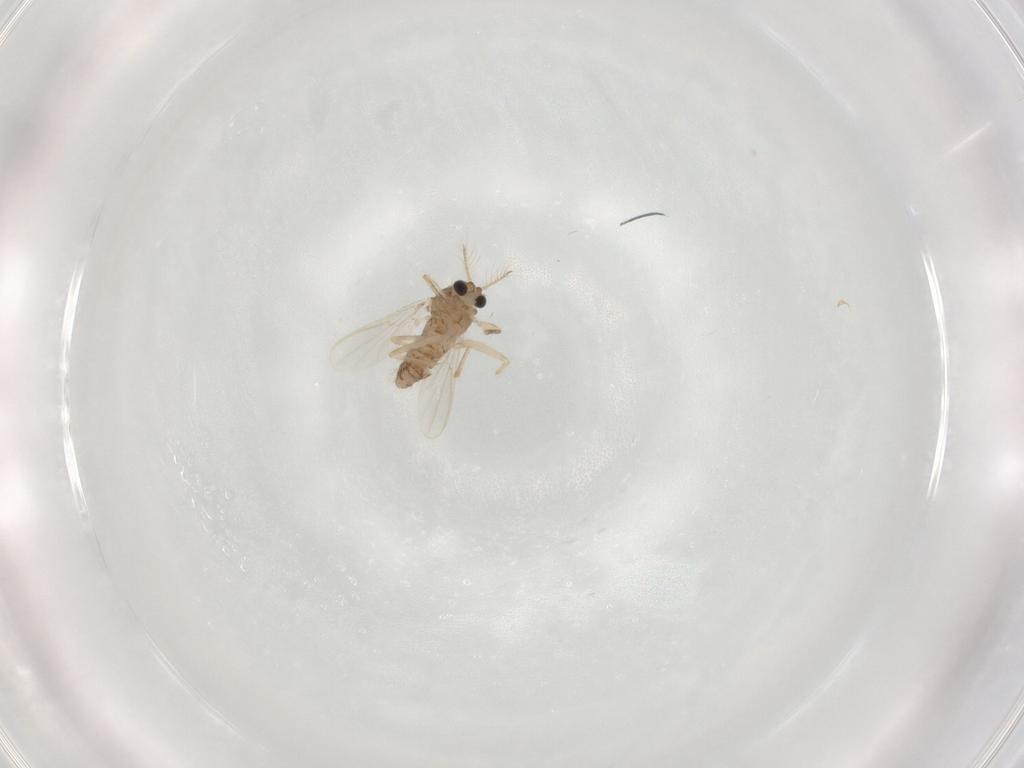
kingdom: Animalia
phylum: Arthropoda
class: Insecta
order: Diptera
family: Chironomidae
